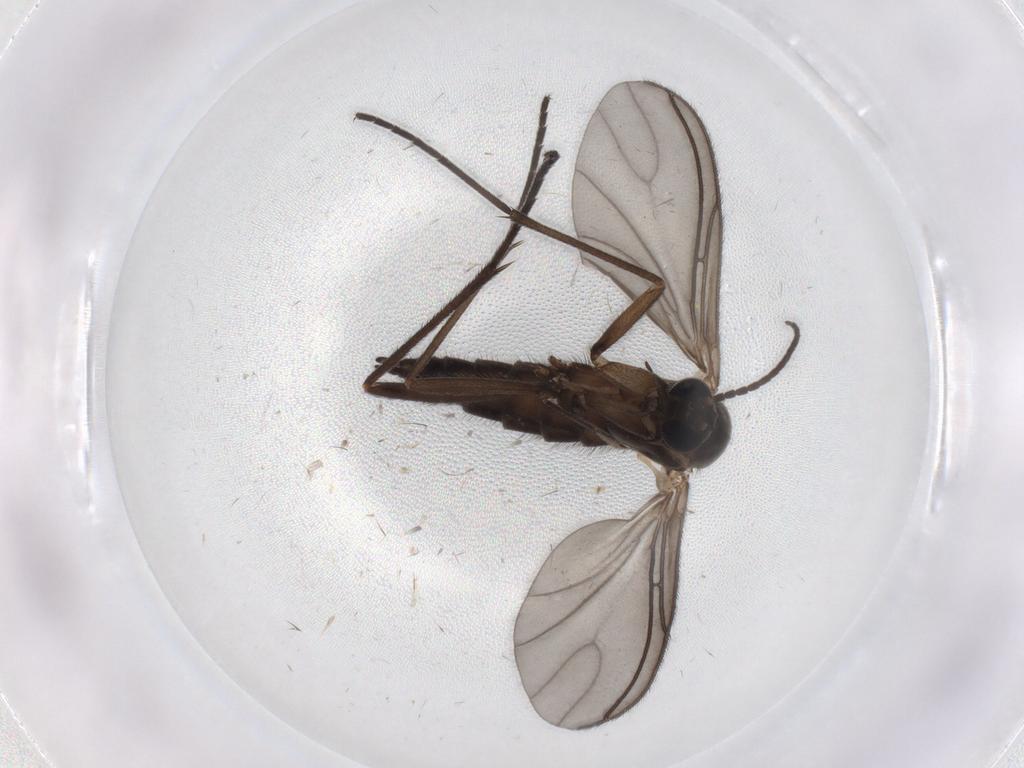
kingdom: Animalia
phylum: Arthropoda
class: Insecta
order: Diptera
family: Sciaridae
